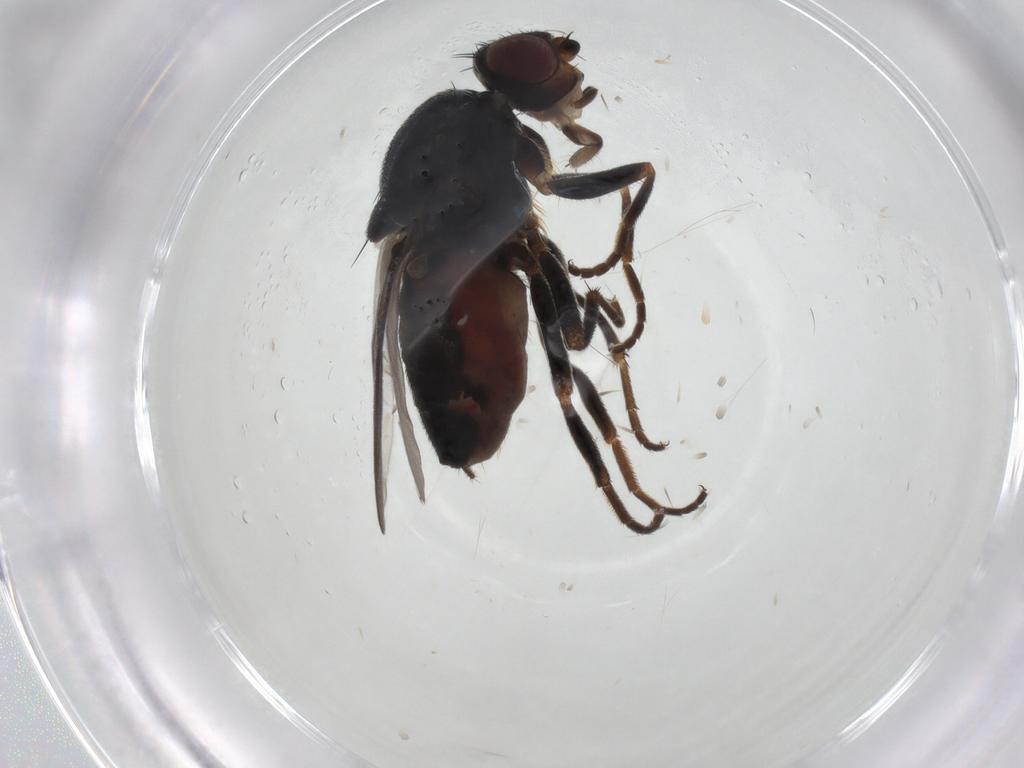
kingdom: Animalia
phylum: Arthropoda
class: Insecta
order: Diptera
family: Chloropidae
